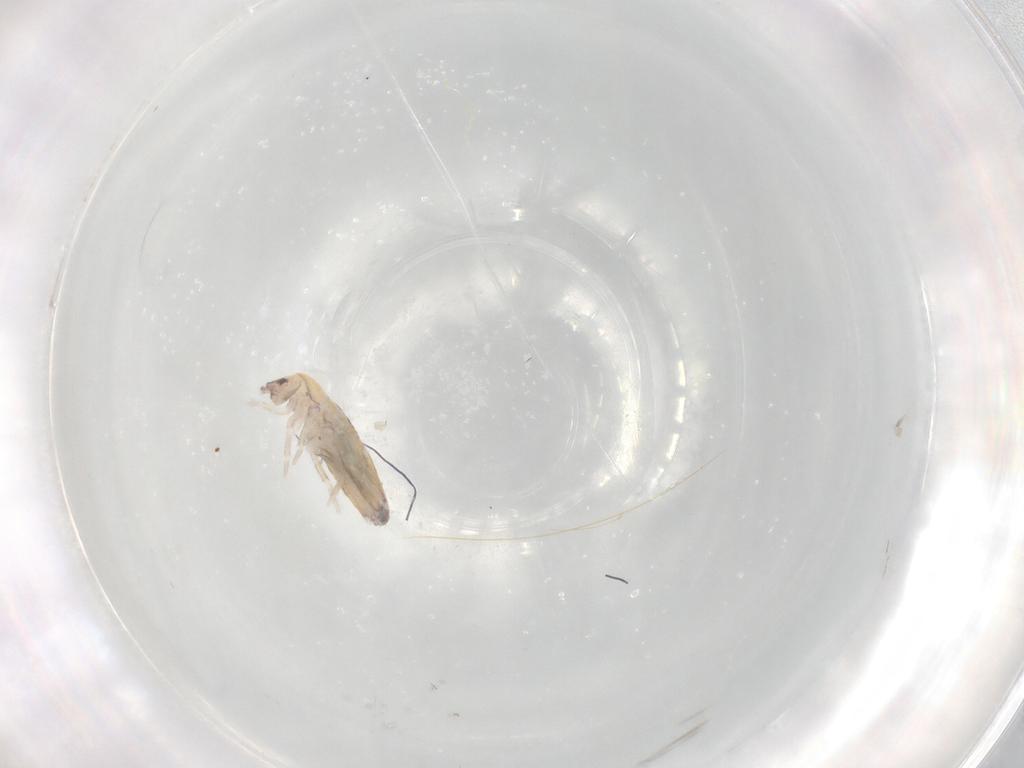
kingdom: Animalia
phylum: Arthropoda
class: Collembola
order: Entomobryomorpha
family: Entomobryidae
